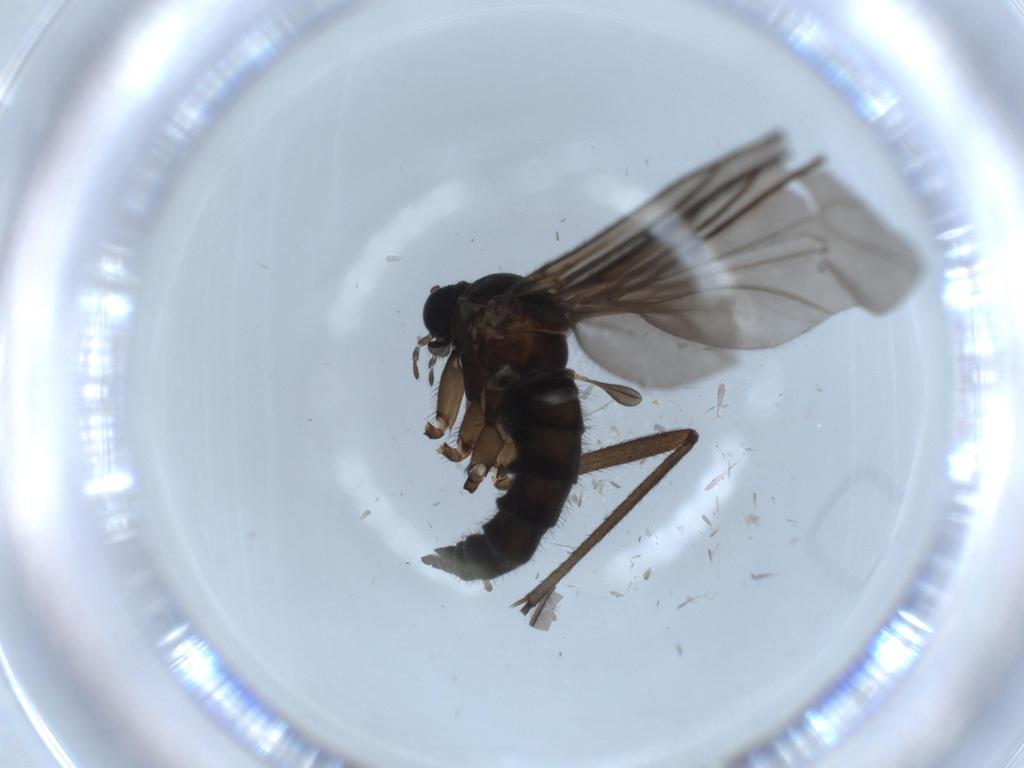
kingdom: Animalia
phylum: Arthropoda
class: Insecta
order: Diptera
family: Sciaridae
